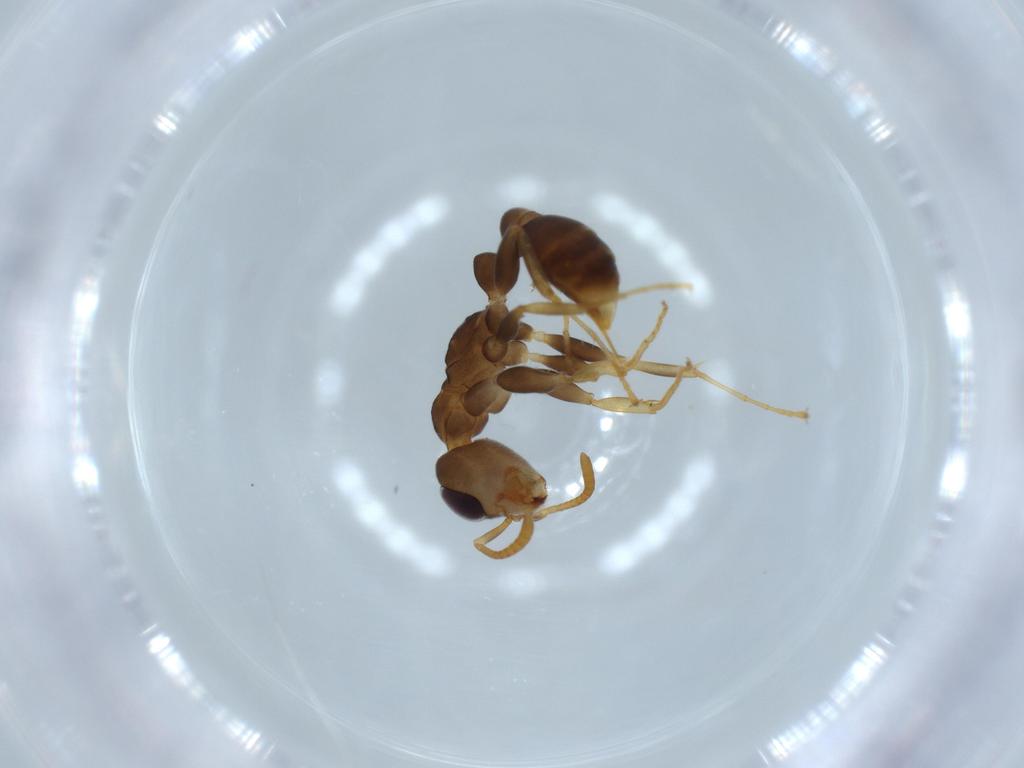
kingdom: Animalia
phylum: Arthropoda
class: Insecta
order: Hymenoptera
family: Formicidae
